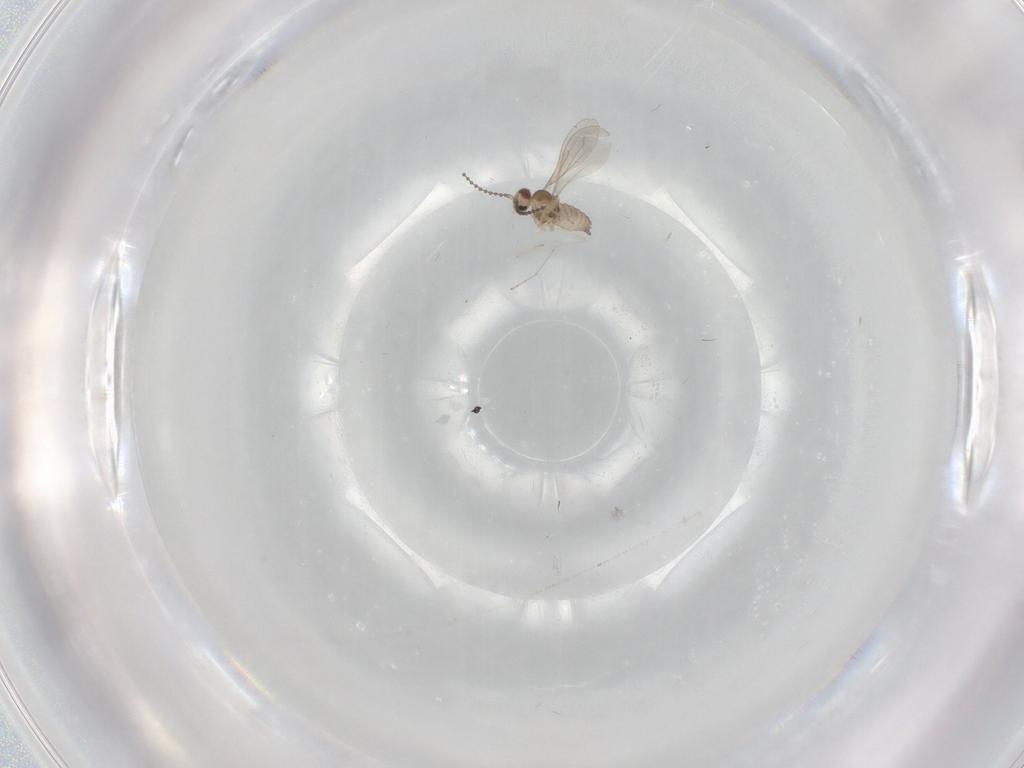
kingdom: Animalia
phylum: Arthropoda
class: Insecta
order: Diptera
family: Cecidomyiidae
